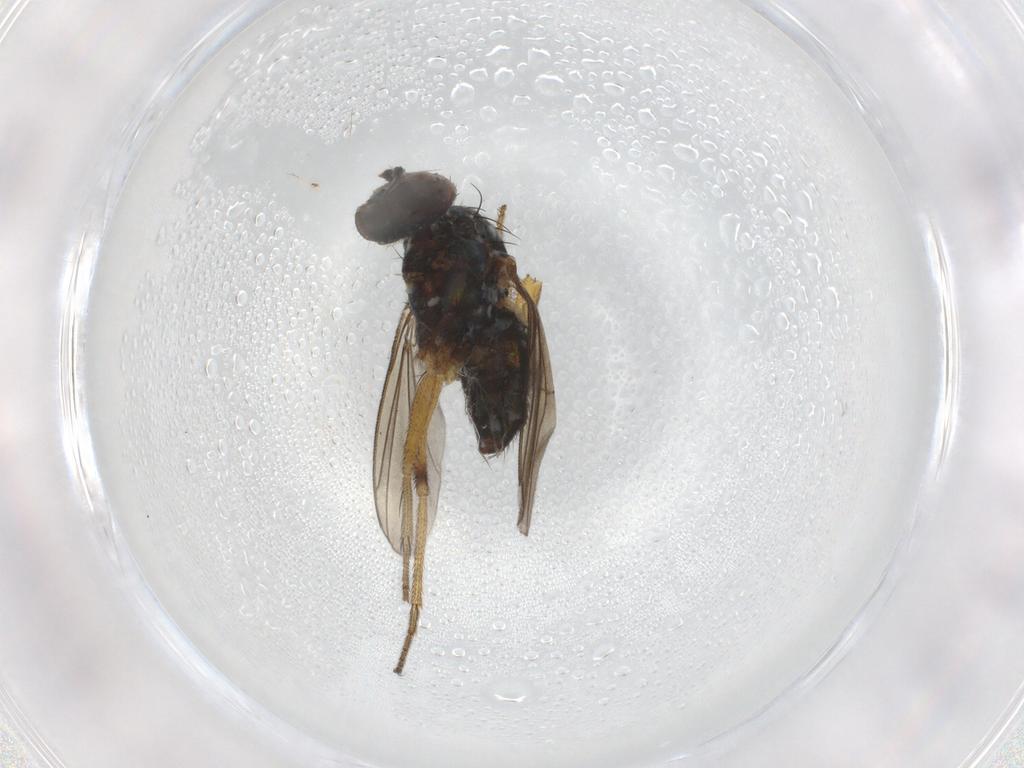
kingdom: Animalia
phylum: Arthropoda
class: Insecta
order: Diptera
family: Dolichopodidae
